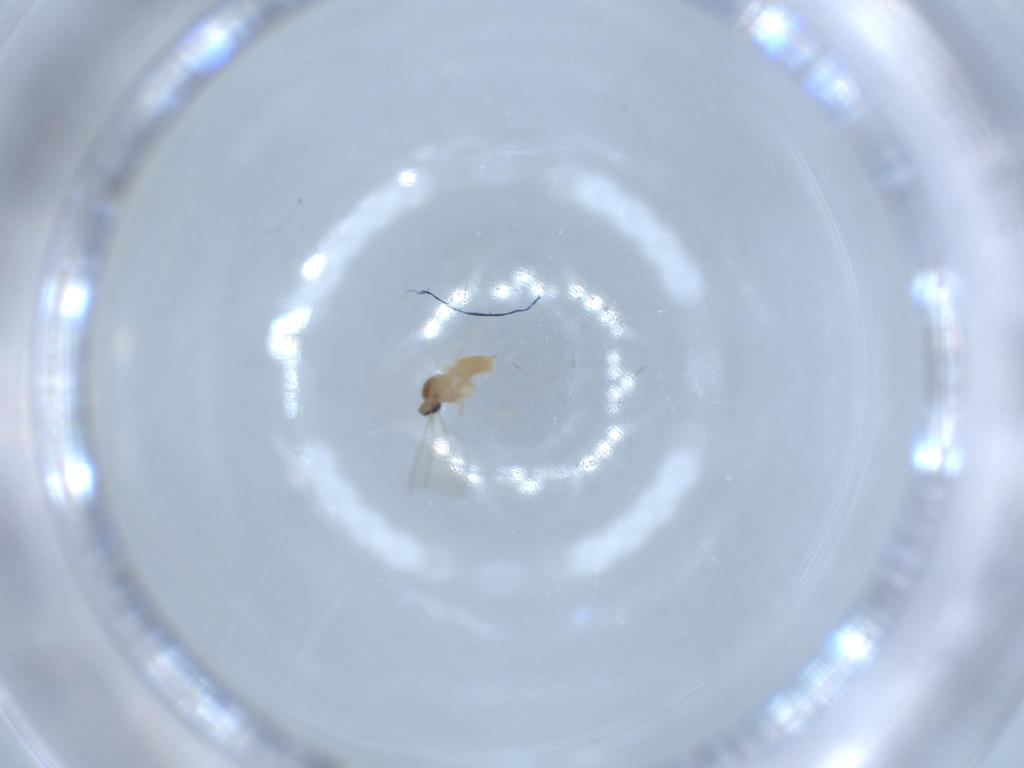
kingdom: Animalia
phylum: Arthropoda
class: Insecta
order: Diptera
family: Cecidomyiidae
